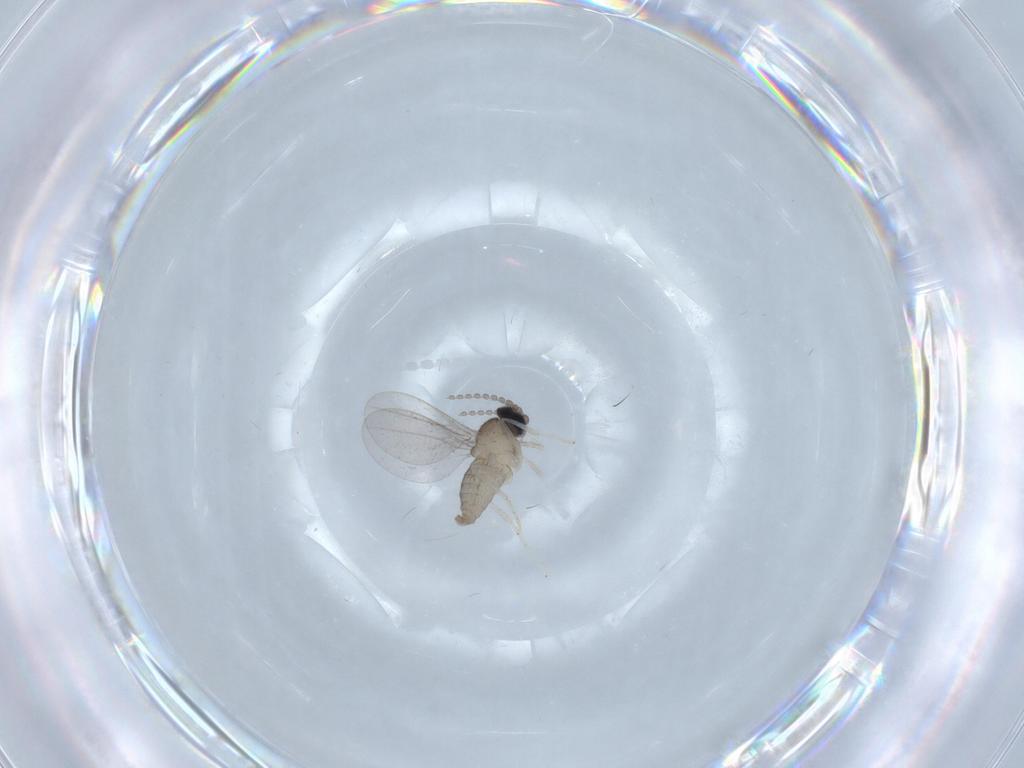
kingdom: Animalia
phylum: Arthropoda
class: Insecta
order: Diptera
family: Cecidomyiidae
